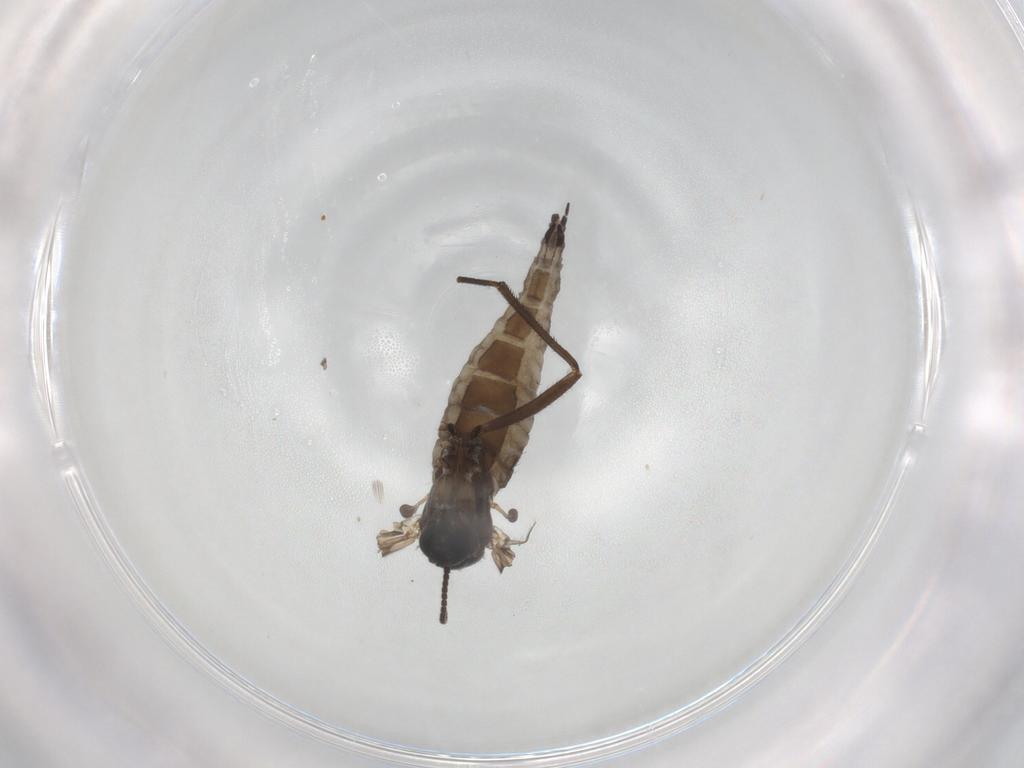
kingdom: Animalia
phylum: Arthropoda
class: Insecta
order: Diptera
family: Sciaridae
